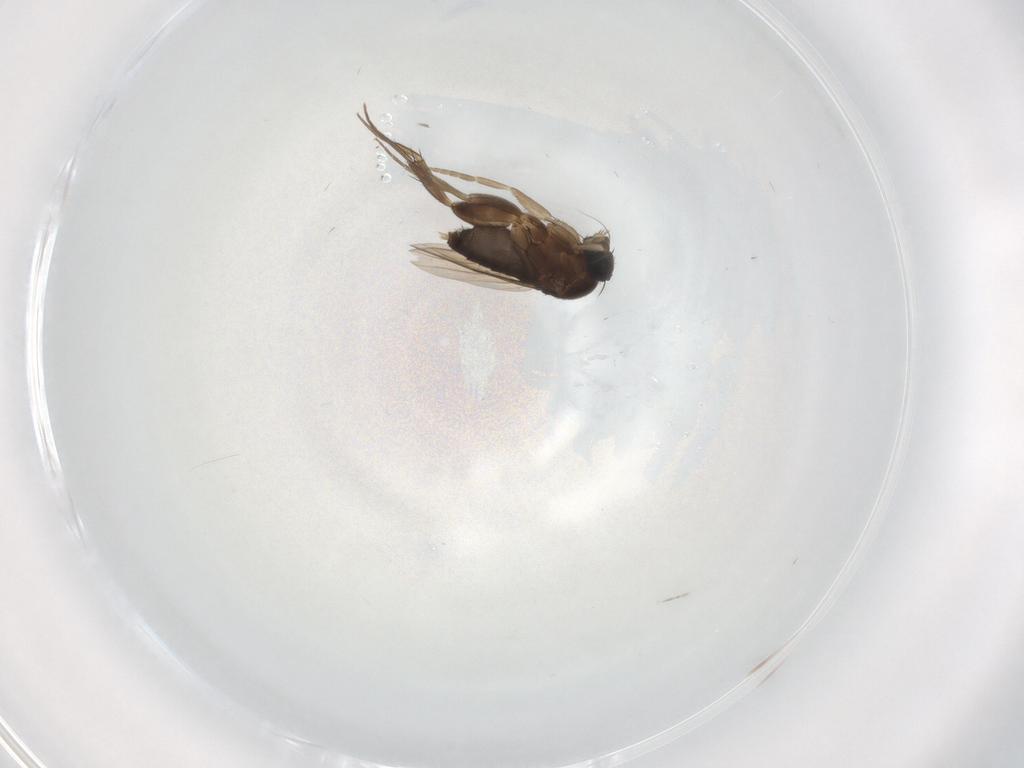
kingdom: Animalia
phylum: Arthropoda
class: Insecta
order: Diptera
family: Phoridae
